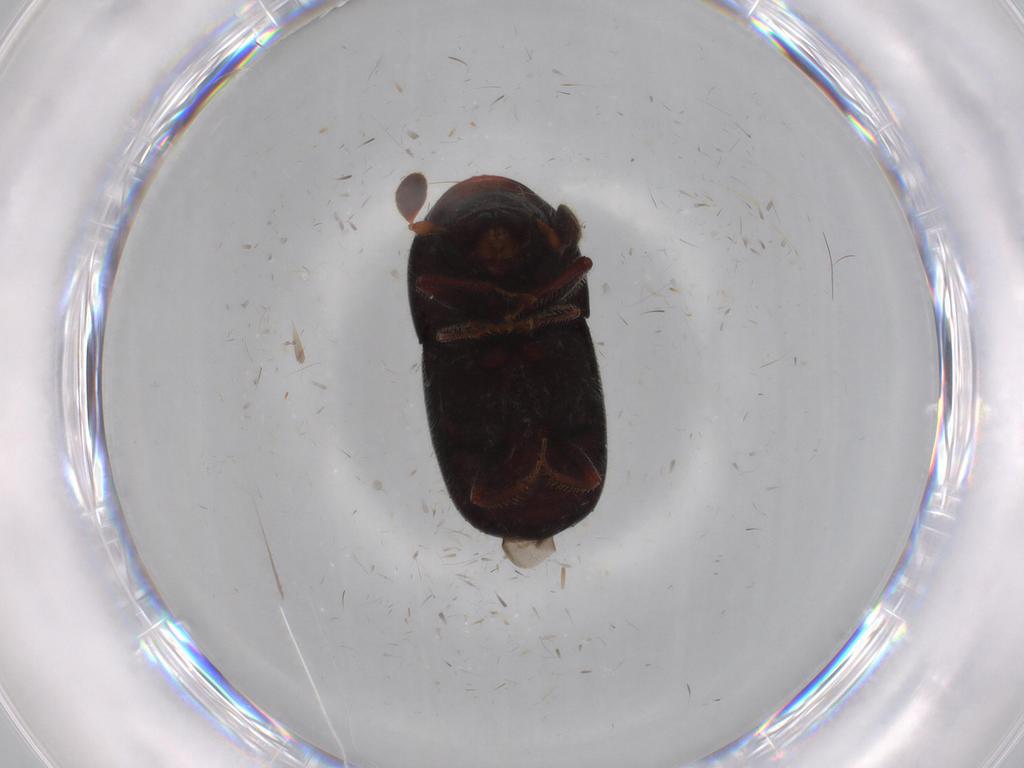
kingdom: Animalia
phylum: Arthropoda
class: Insecta
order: Coleoptera
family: Curculionidae
